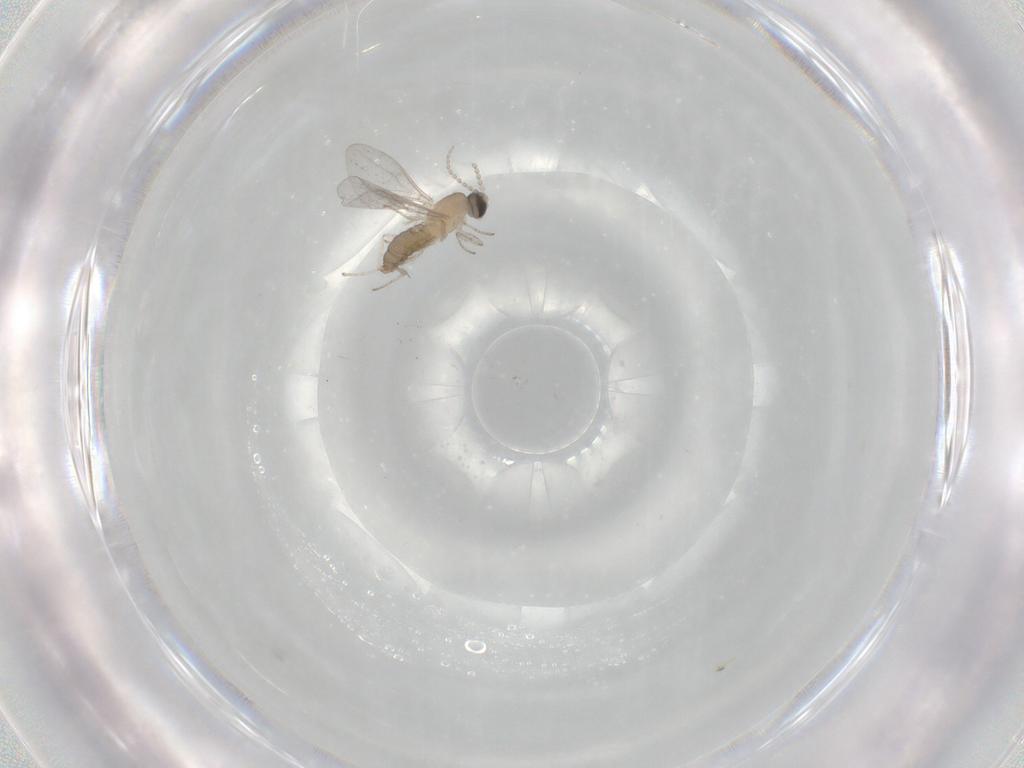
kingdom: Animalia
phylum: Arthropoda
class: Insecta
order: Diptera
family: Cecidomyiidae
